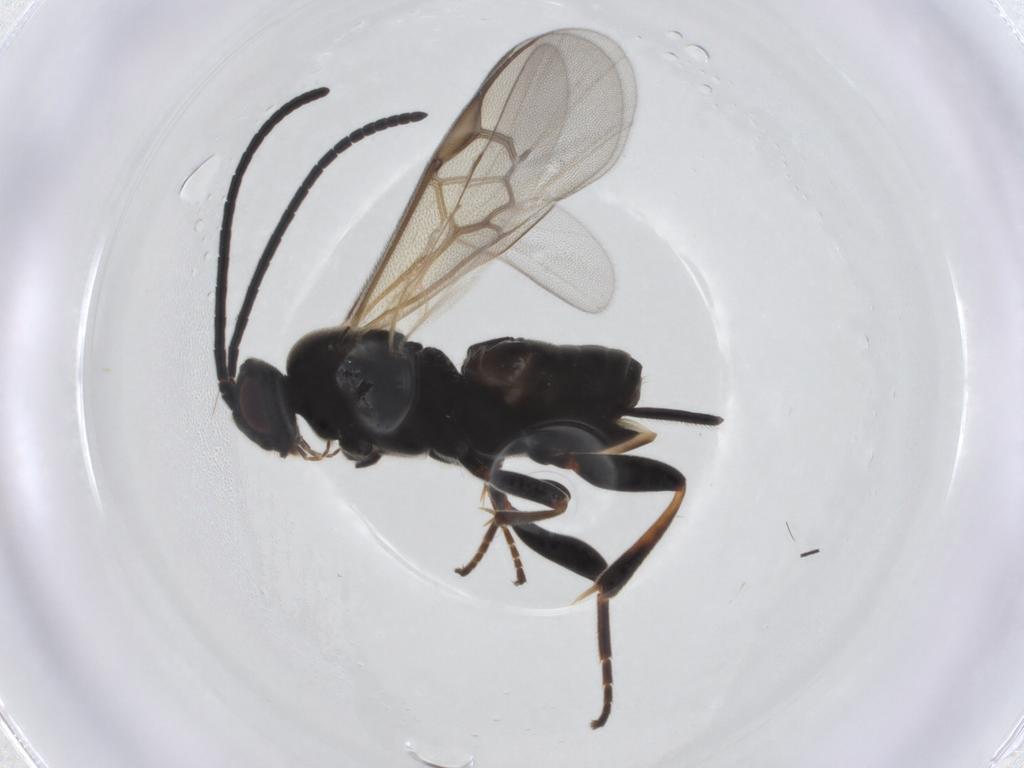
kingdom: Animalia
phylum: Arthropoda
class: Insecta
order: Hymenoptera
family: Braconidae
